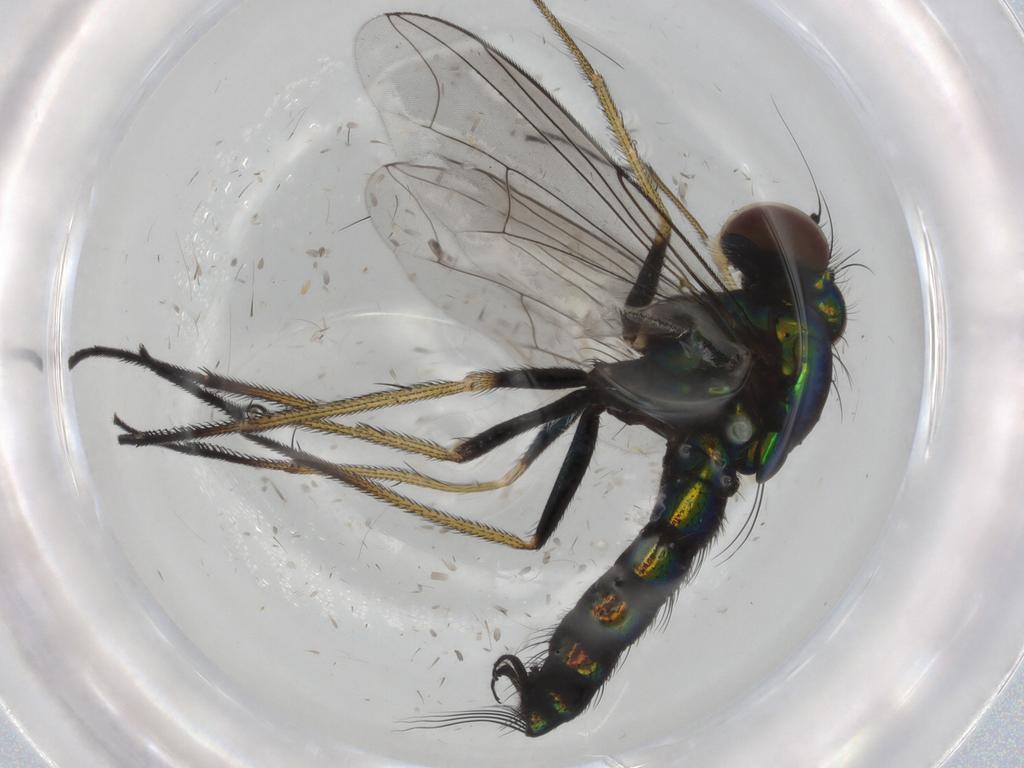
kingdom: Animalia
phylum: Arthropoda
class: Insecta
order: Diptera
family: Dolichopodidae
